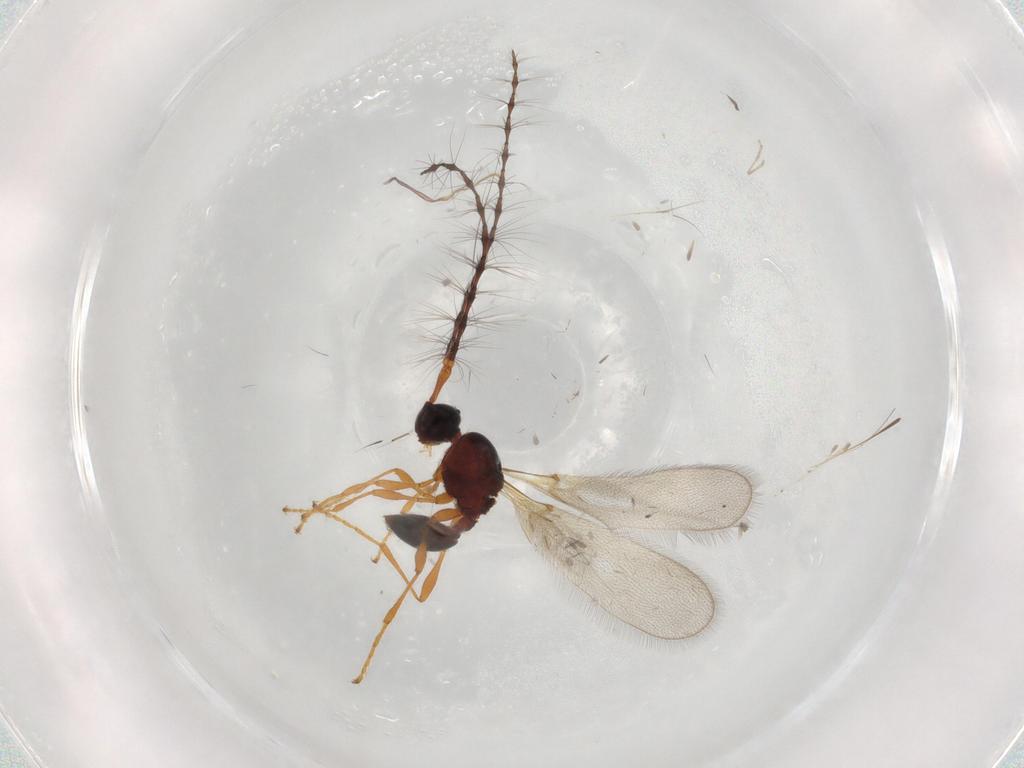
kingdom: Animalia
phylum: Arthropoda
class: Insecta
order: Hymenoptera
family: Diapriidae
